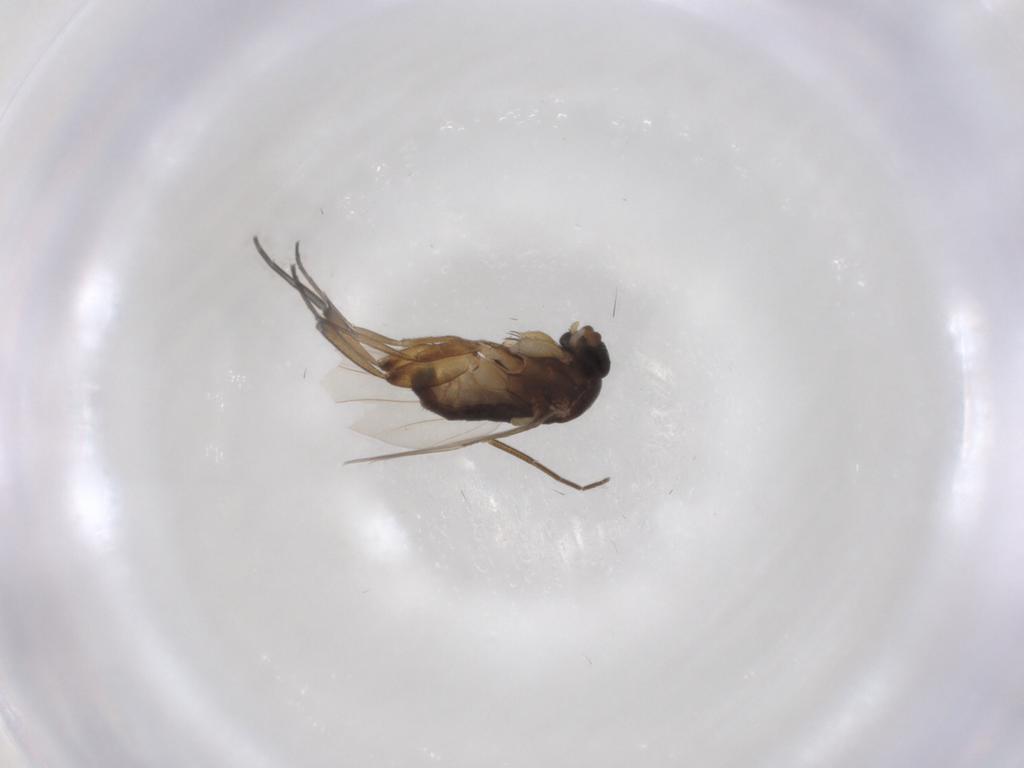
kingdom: Animalia
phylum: Arthropoda
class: Insecta
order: Diptera
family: Phoridae
